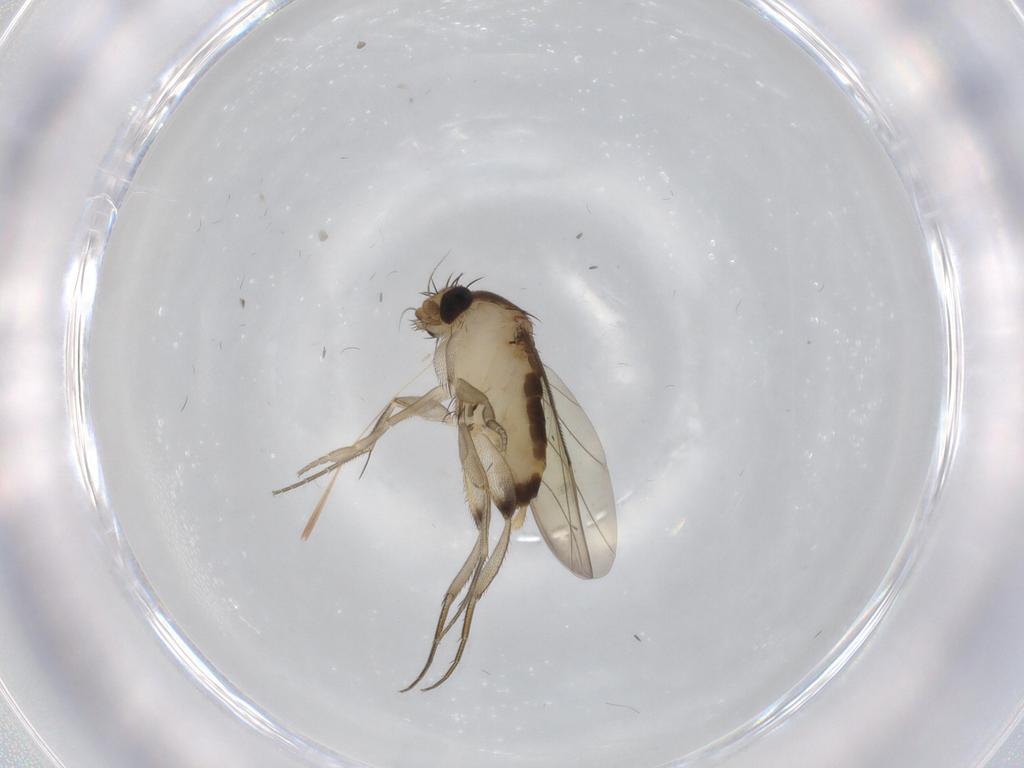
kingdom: Animalia
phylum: Arthropoda
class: Insecta
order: Diptera
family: Phoridae
